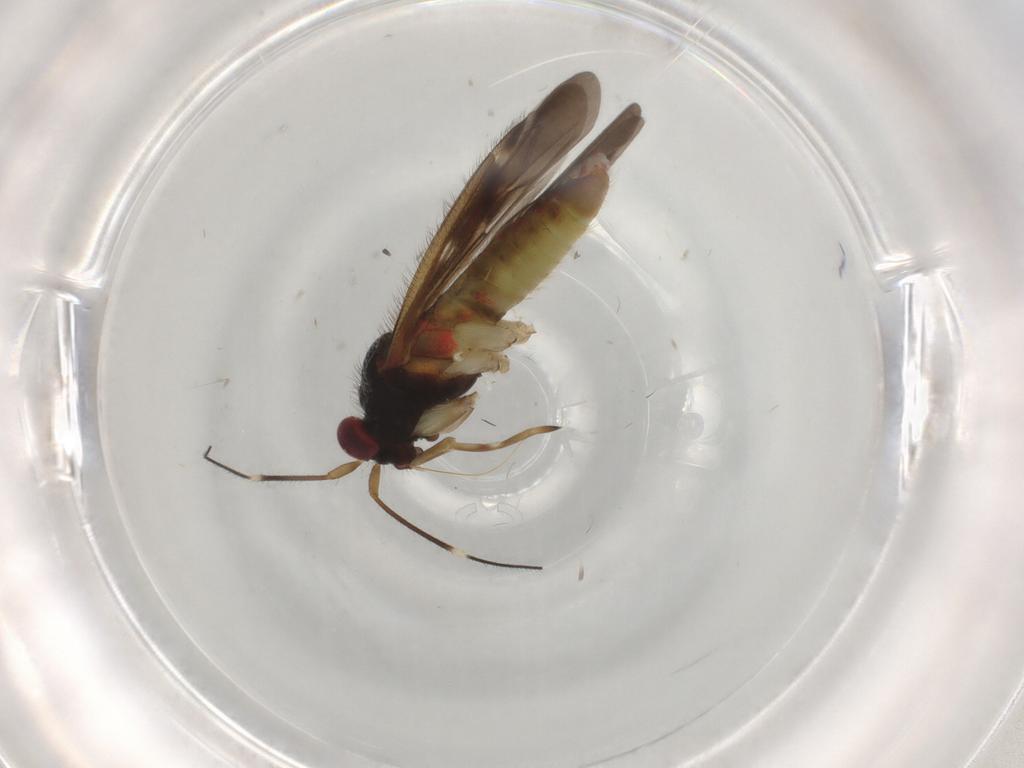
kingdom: Animalia
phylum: Arthropoda
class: Insecta
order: Hemiptera
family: Miridae
